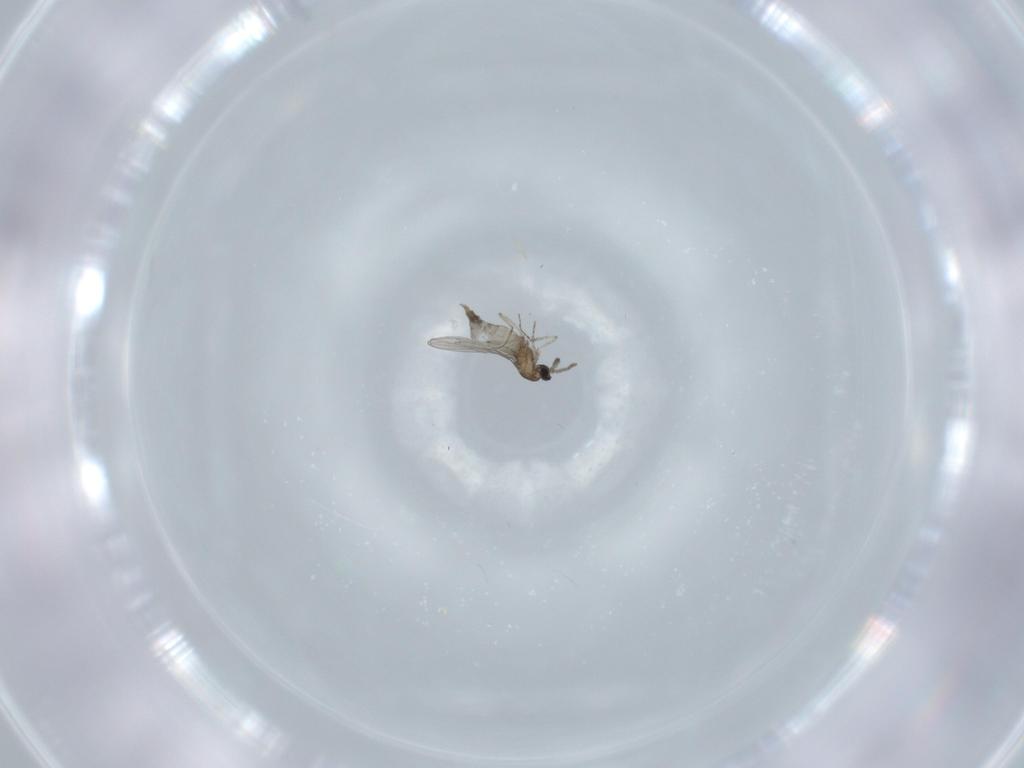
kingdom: Animalia
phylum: Arthropoda
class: Insecta
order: Diptera
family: Cecidomyiidae
